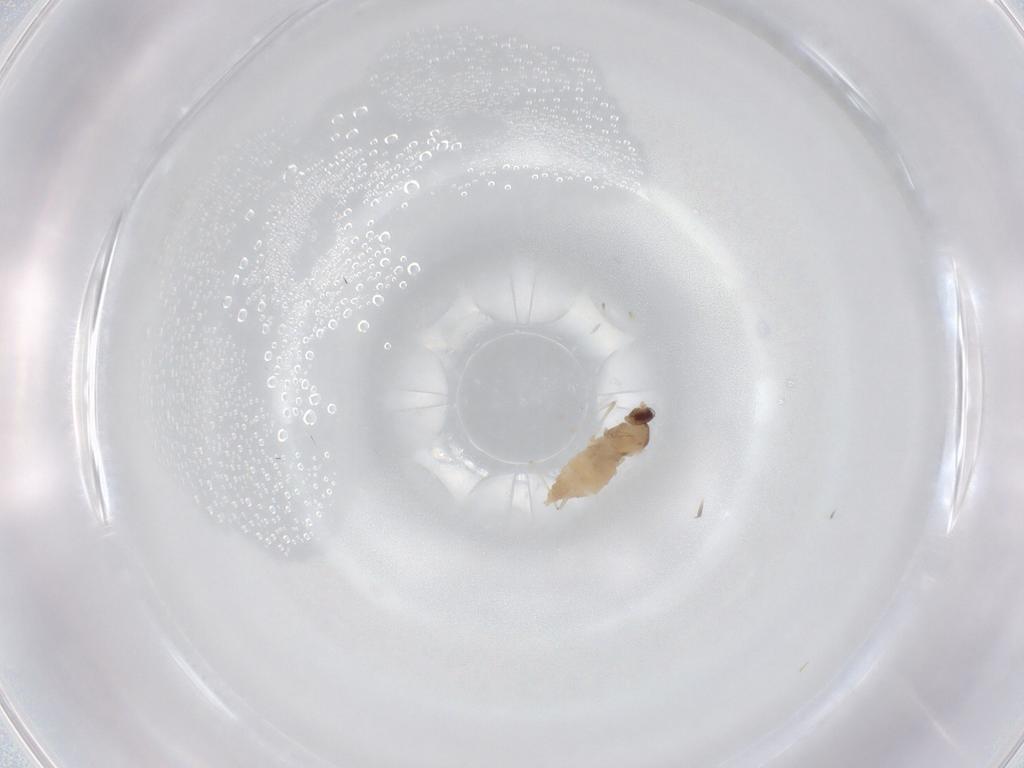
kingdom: Animalia
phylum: Arthropoda
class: Insecta
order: Diptera
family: Cecidomyiidae
